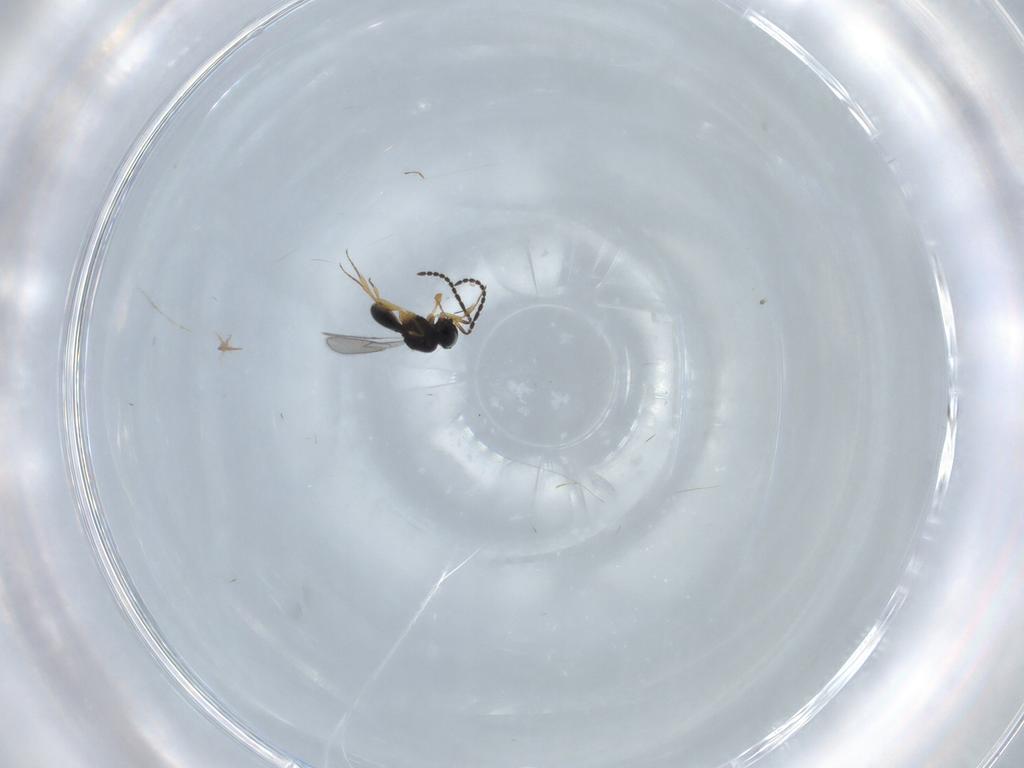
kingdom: Animalia
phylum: Arthropoda
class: Insecta
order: Hymenoptera
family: Scelionidae
